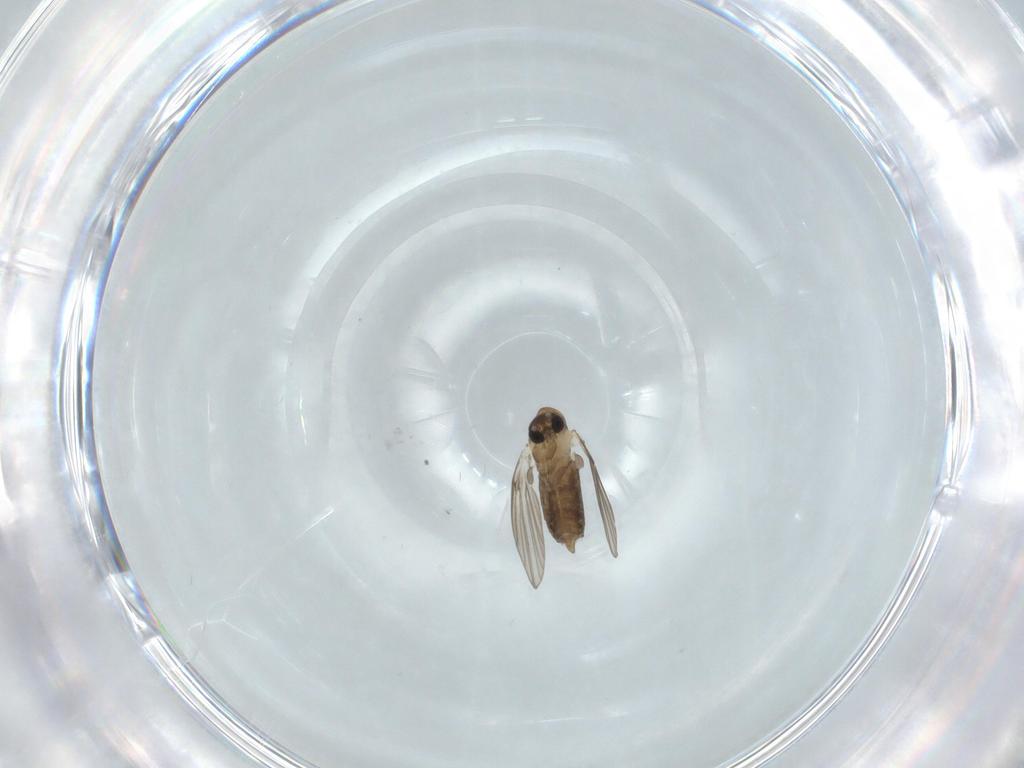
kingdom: Animalia
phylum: Arthropoda
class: Insecta
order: Diptera
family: Psychodidae
